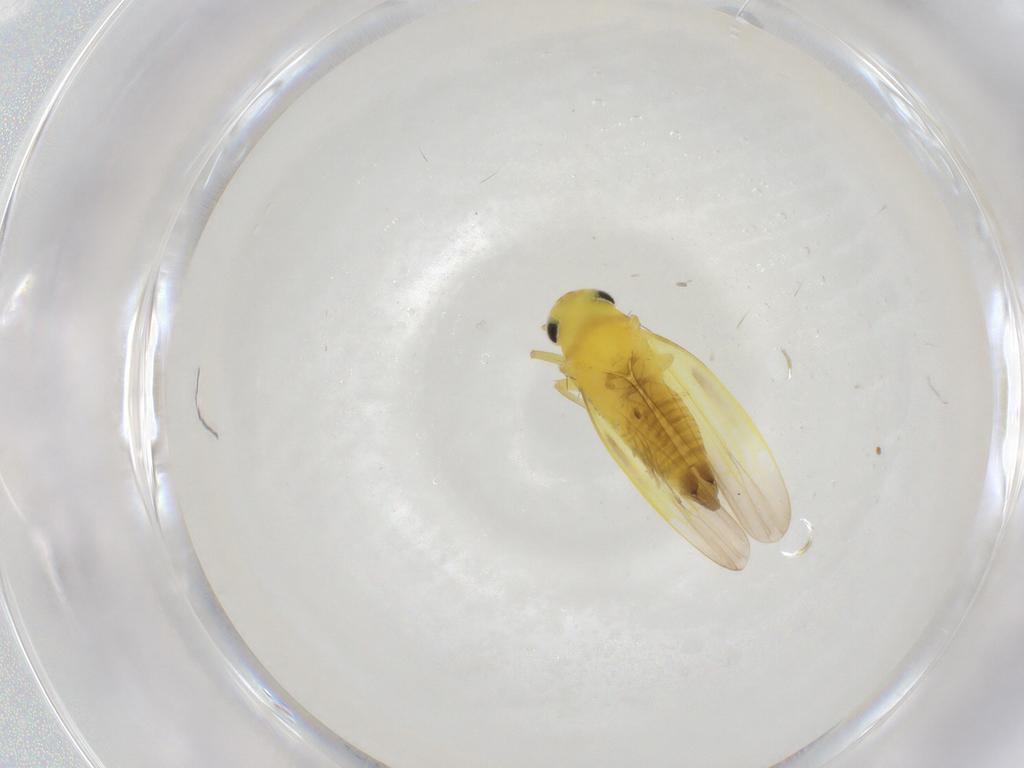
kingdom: Animalia
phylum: Arthropoda
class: Insecta
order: Hemiptera
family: Cicadellidae
